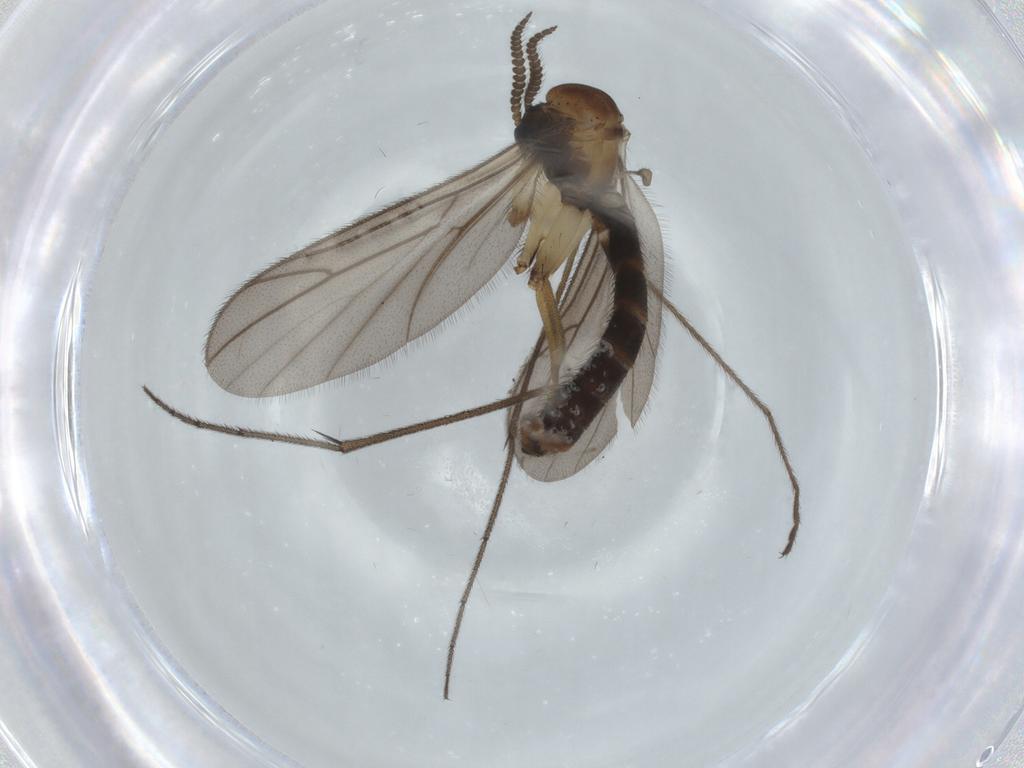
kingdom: Animalia
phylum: Arthropoda
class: Insecta
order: Diptera
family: Ditomyiidae
